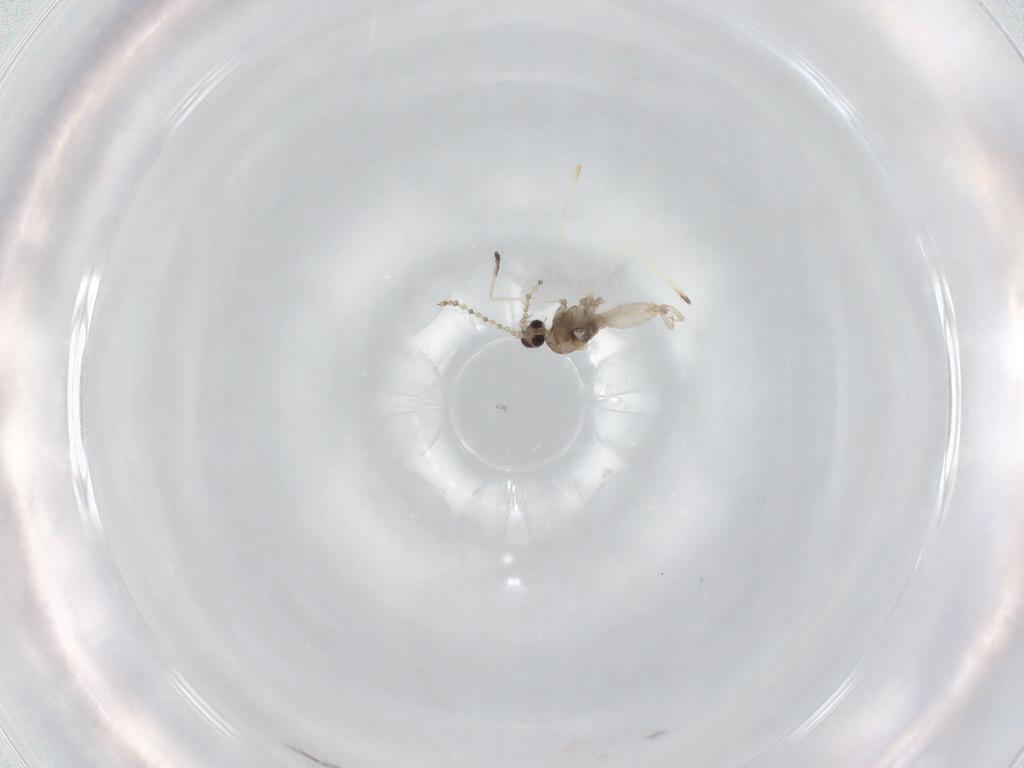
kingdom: Animalia
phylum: Arthropoda
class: Insecta
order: Diptera
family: Cecidomyiidae
